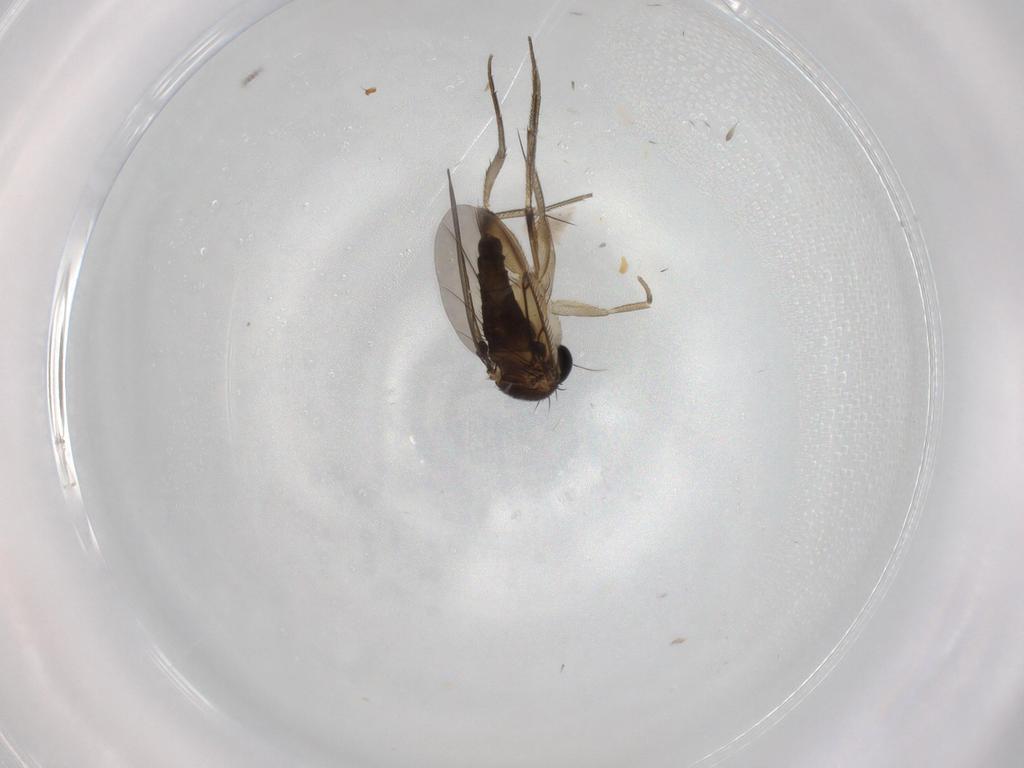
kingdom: Animalia
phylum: Arthropoda
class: Insecta
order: Diptera
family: Chironomidae
